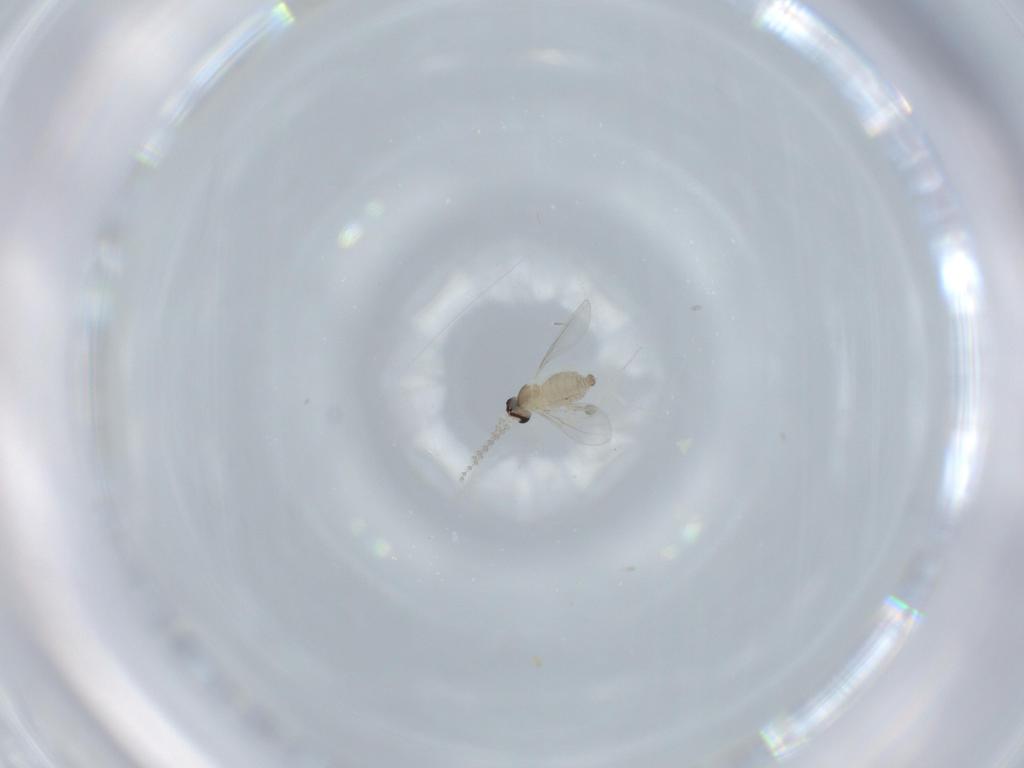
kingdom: Animalia
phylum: Arthropoda
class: Insecta
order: Diptera
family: Cecidomyiidae
